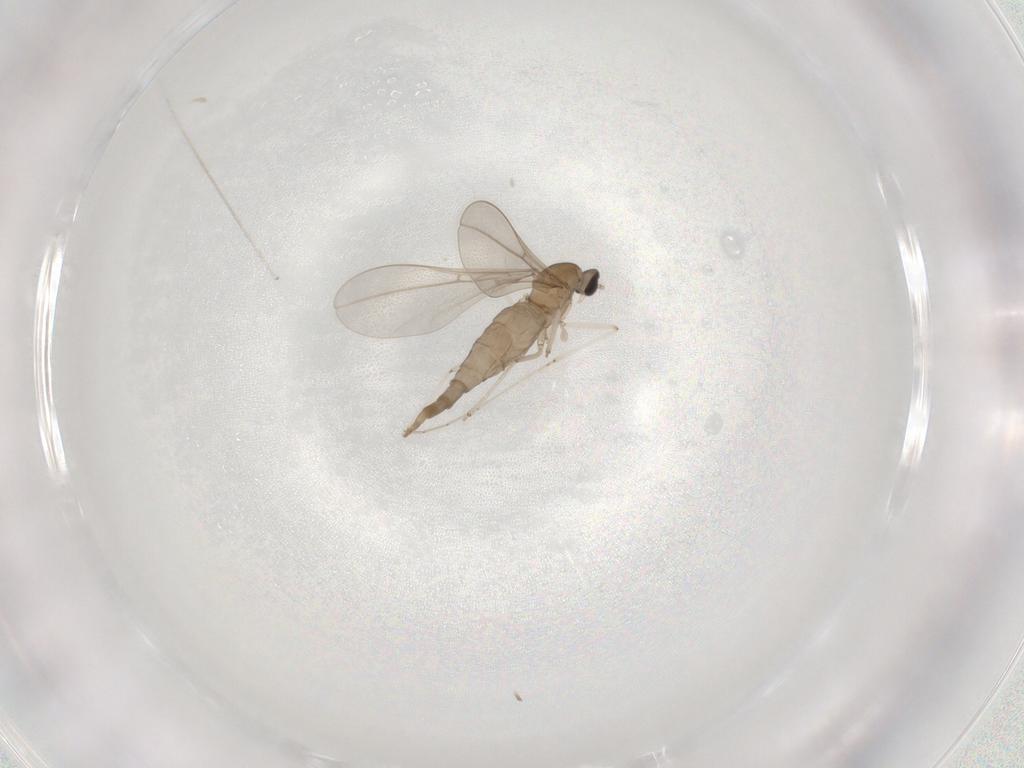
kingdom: Animalia
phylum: Arthropoda
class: Insecta
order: Diptera
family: Cecidomyiidae
